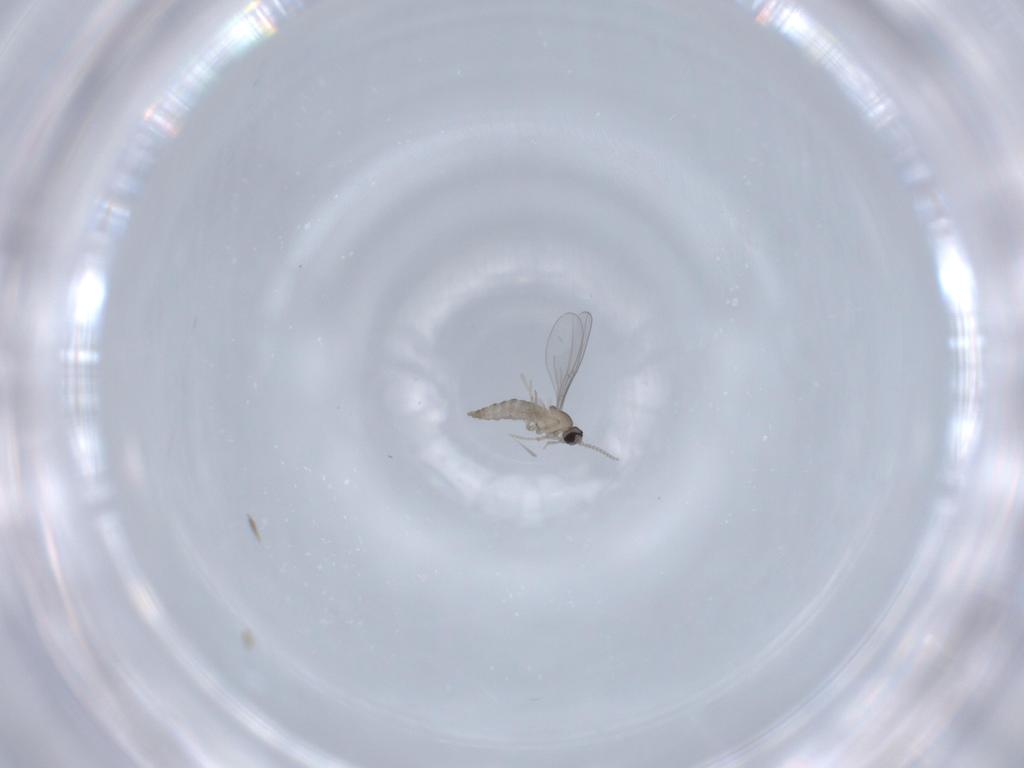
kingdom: Animalia
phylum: Arthropoda
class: Insecta
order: Diptera
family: Cecidomyiidae
